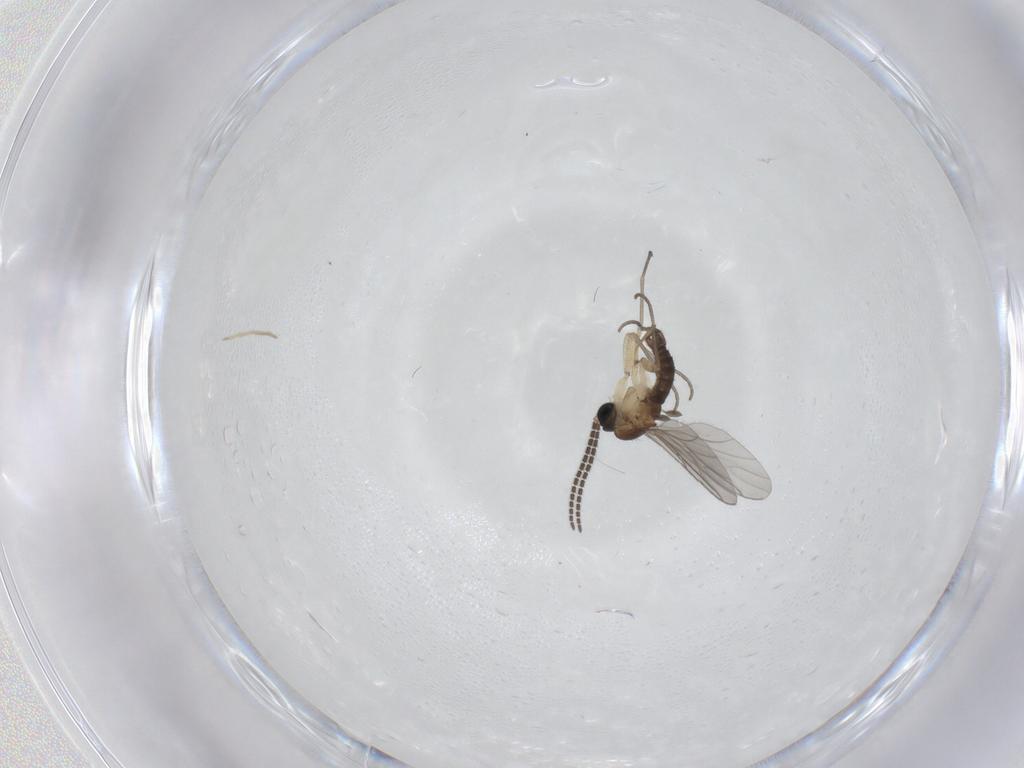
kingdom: Animalia
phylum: Arthropoda
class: Insecta
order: Diptera
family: Sciaridae
